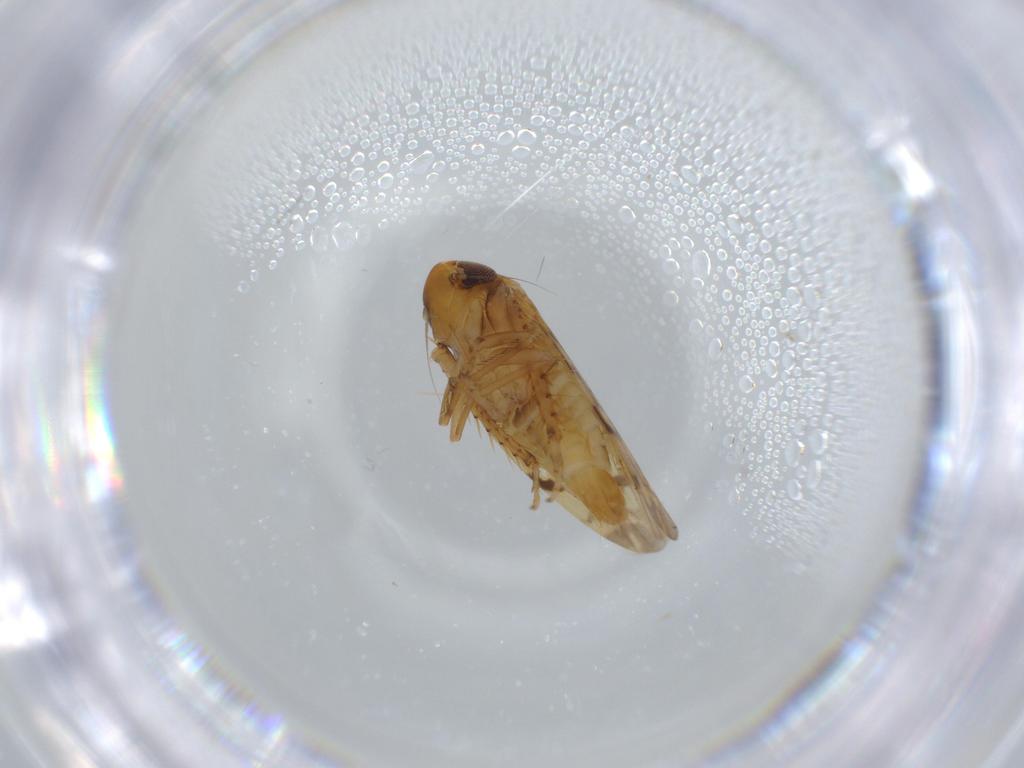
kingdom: Animalia
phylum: Arthropoda
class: Insecta
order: Hemiptera
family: Cicadellidae
